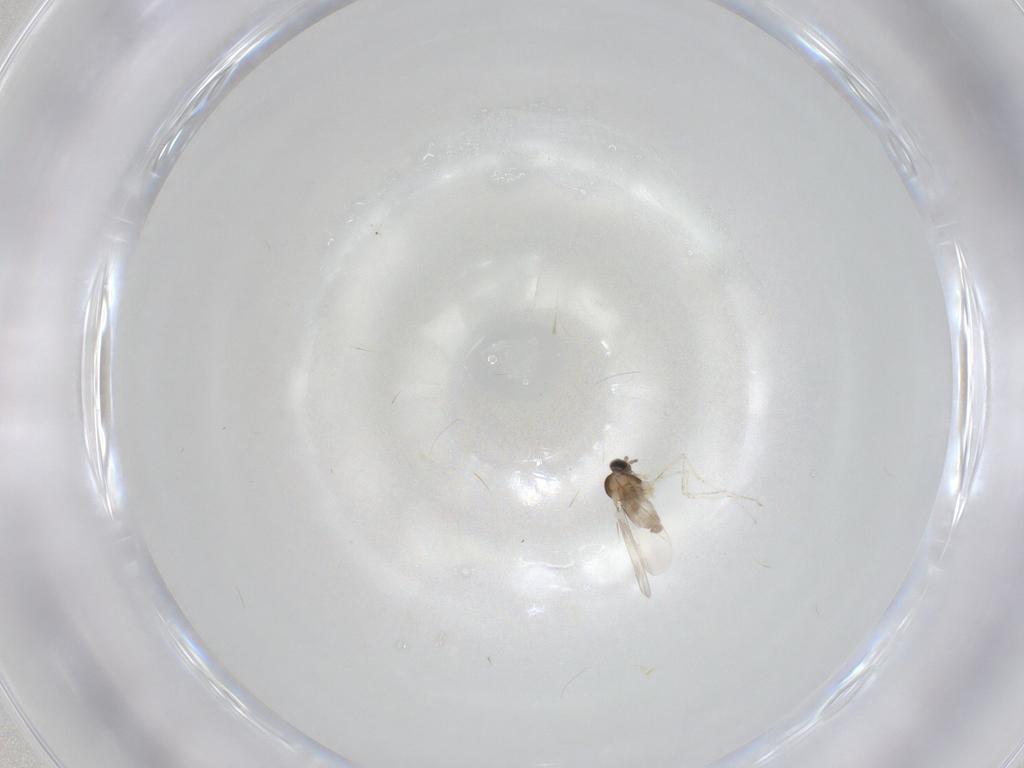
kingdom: Animalia
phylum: Arthropoda
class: Insecta
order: Diptera
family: Cecidomyiidae
